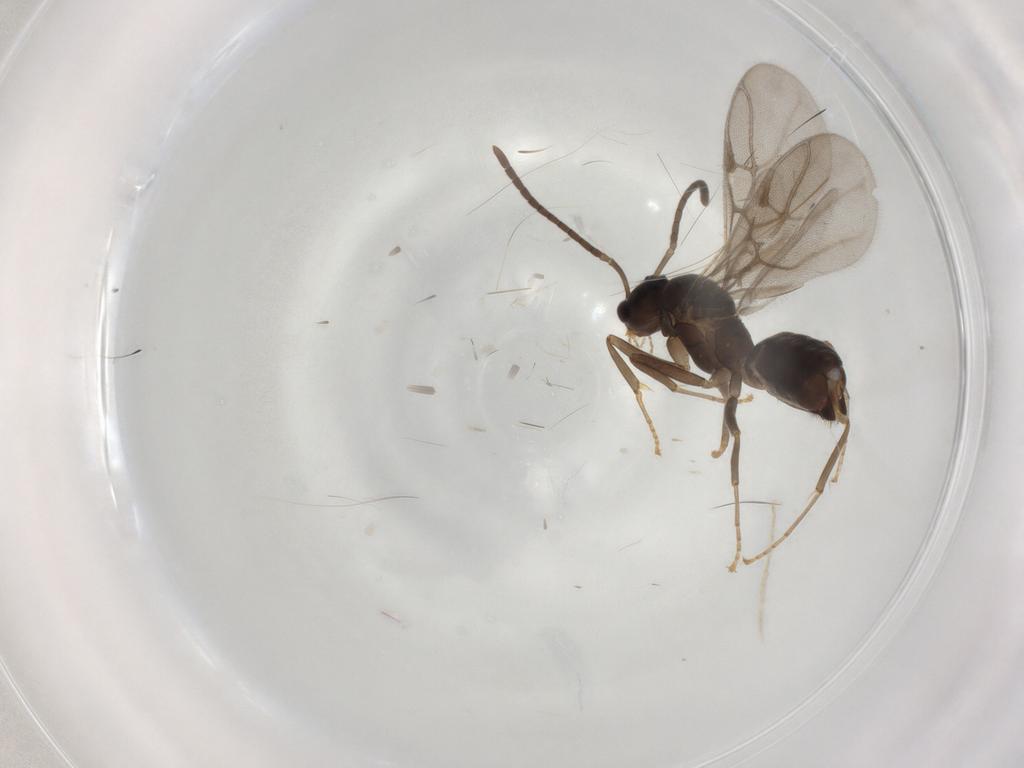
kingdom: Animalia
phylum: Arthropoda
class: Insecta
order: Hymenoptera
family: Formicidae
